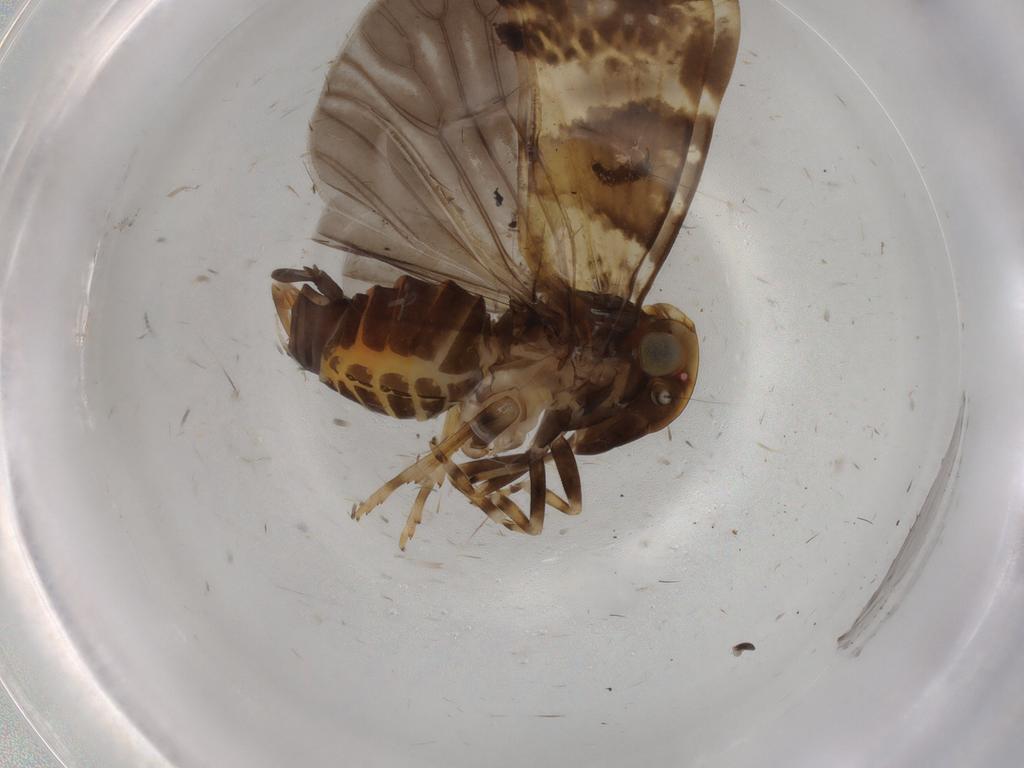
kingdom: Animalia
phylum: Arthropoda
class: Insecta
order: Hemiptera
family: Cixiidae
